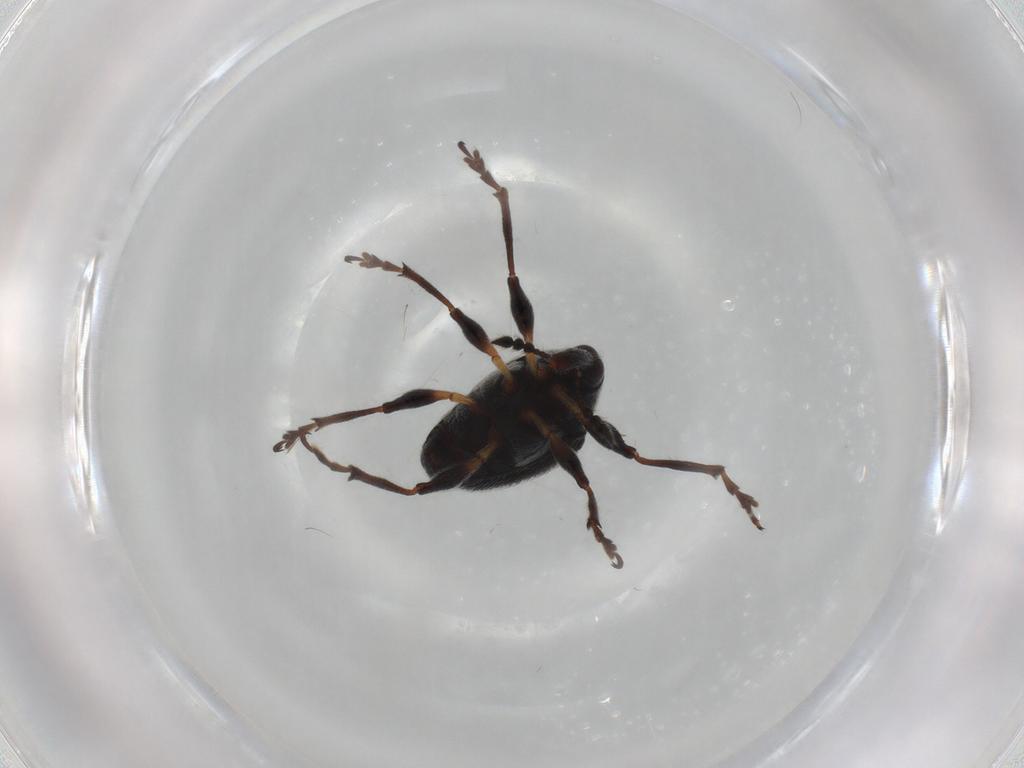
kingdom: Animalia
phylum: Arthropoda
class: Insecta
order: Coleoptera
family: Brentidae
